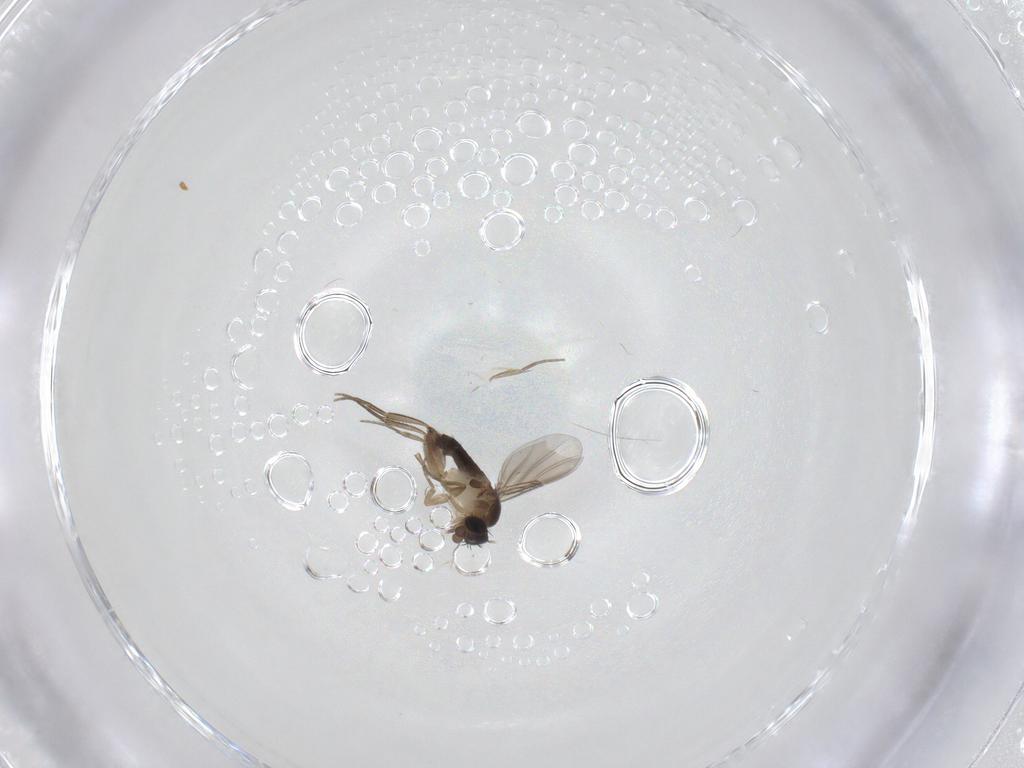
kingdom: Animalia
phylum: Arthropoda
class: Insecta
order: Diptera
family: Phoridae
